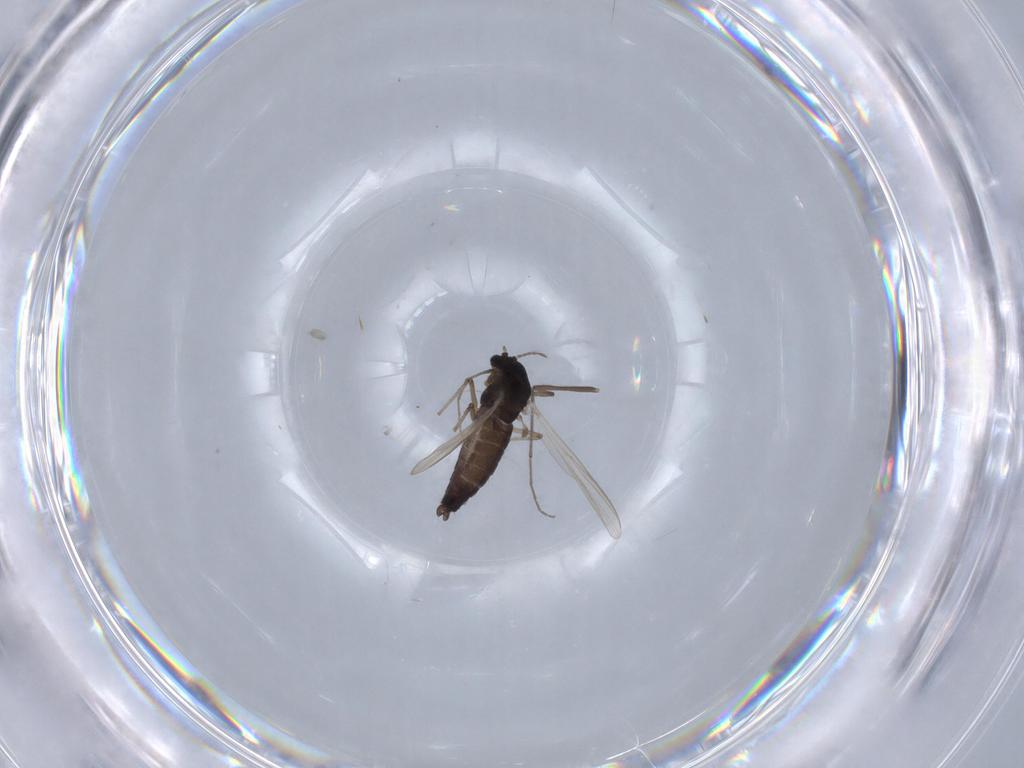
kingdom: Animalia
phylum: Arthropoda
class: Insecta
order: Diptera
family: Chironomidae
